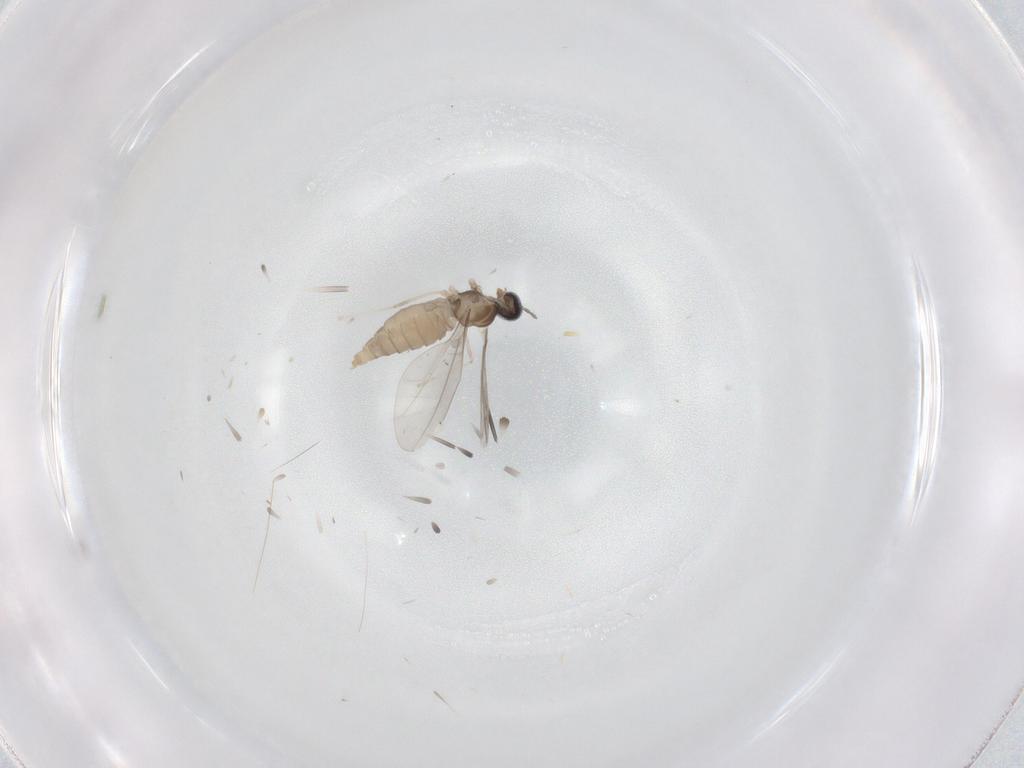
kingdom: Animalia
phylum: Arthropoda
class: Insecta
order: Diptera
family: Cecidomyiidae
